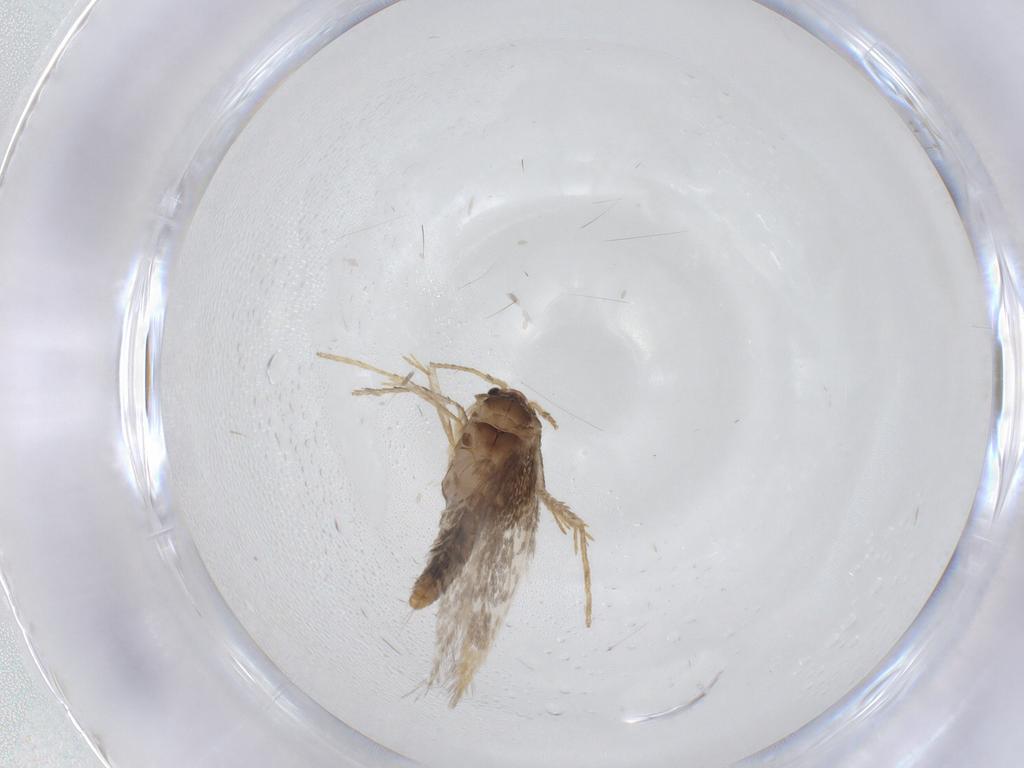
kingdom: Animalia
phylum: Arthropoda
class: Insecta
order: Lepidoptera
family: Nepticulidae
